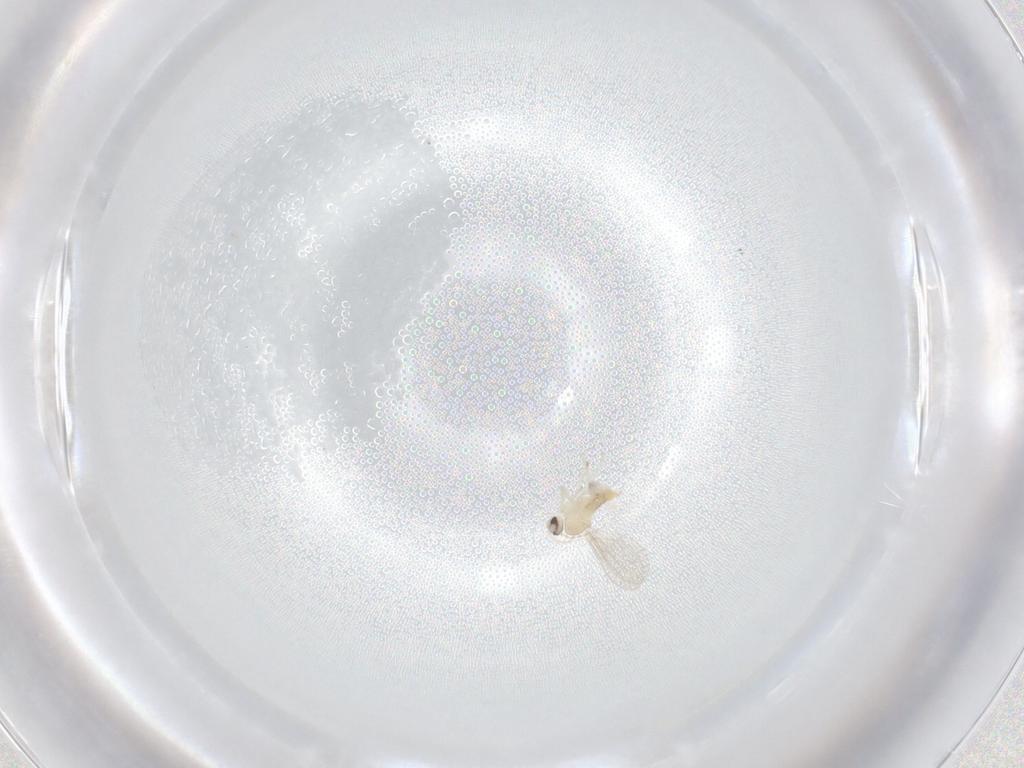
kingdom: Animalia
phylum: Arthropoda
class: Insecta
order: Diptera
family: Cecidomyiidae
